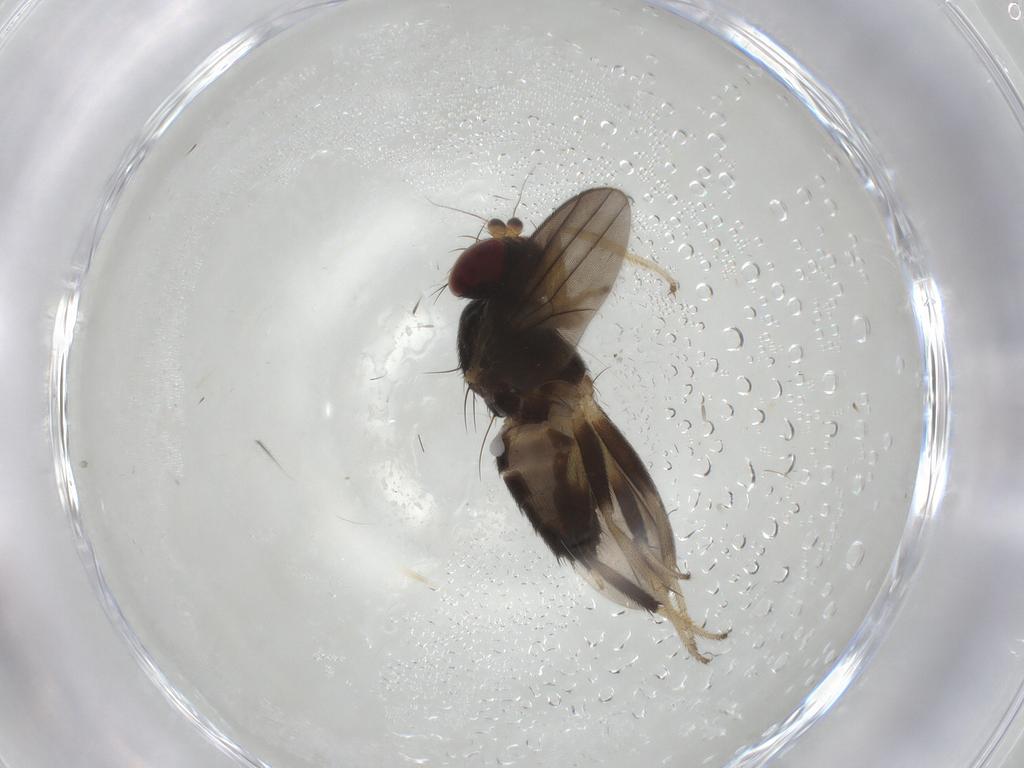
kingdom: Animalia
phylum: Arthropoda
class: Insecta
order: Diptera
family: Clusiidae
